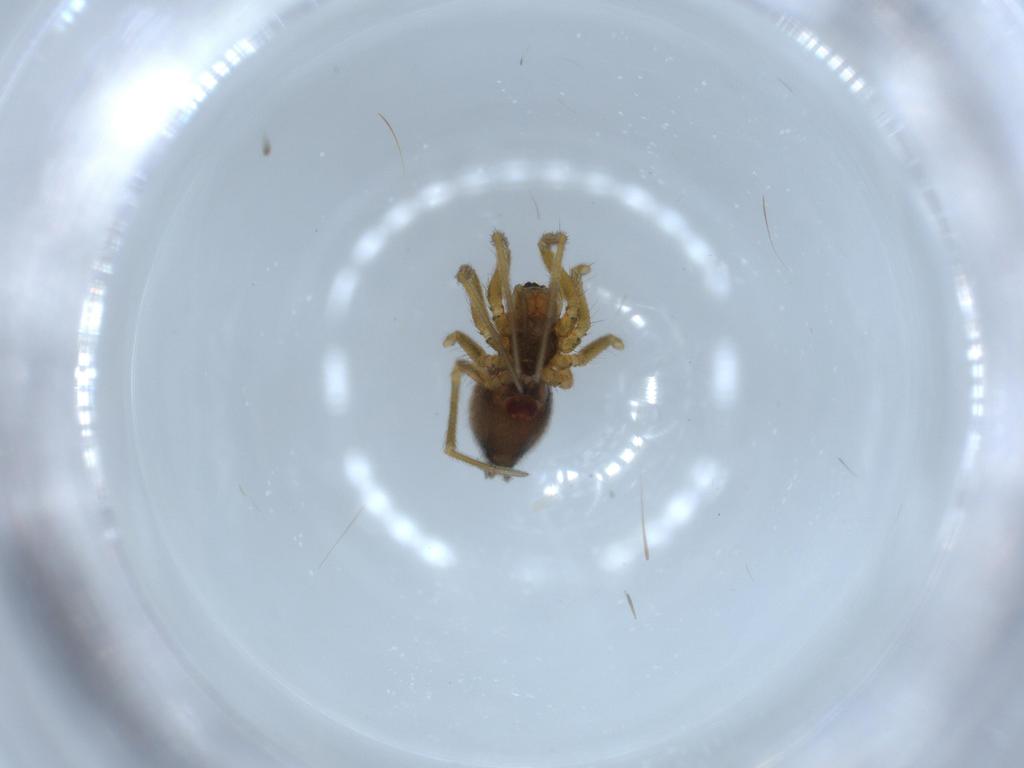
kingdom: Animalia
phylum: Arthropoda
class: Arachnida
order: Araneae
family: Linyphiidae
